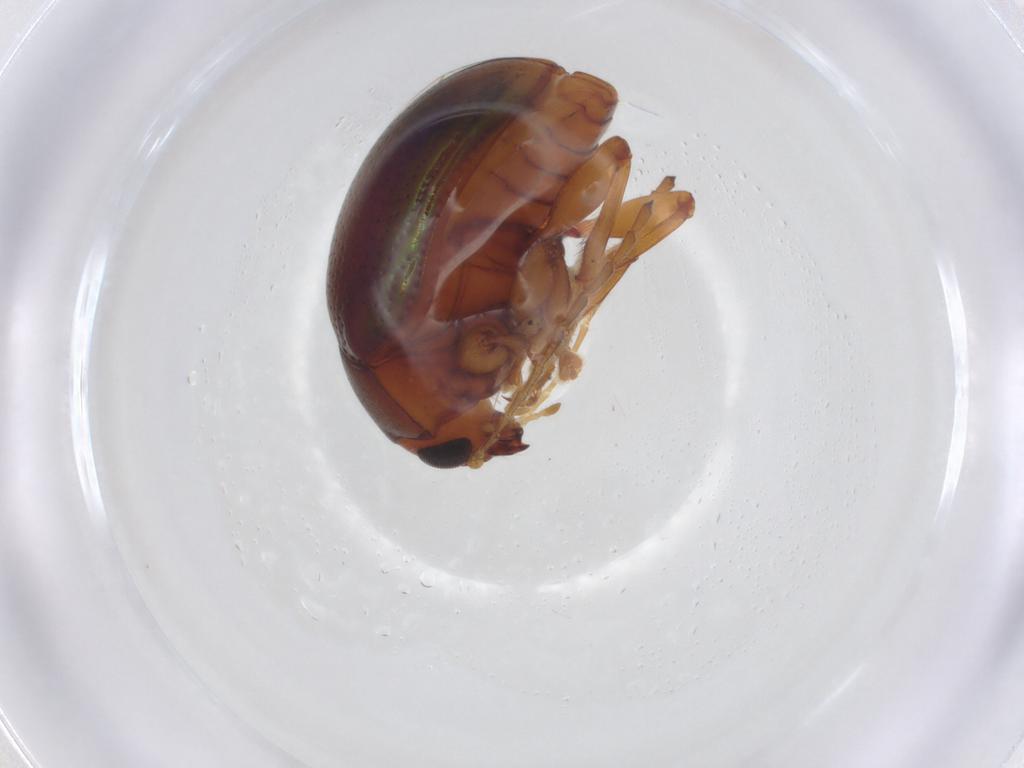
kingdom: Animalia
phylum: Arthropoda
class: Insecta
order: Coleoptera
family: Chrysomelidae
